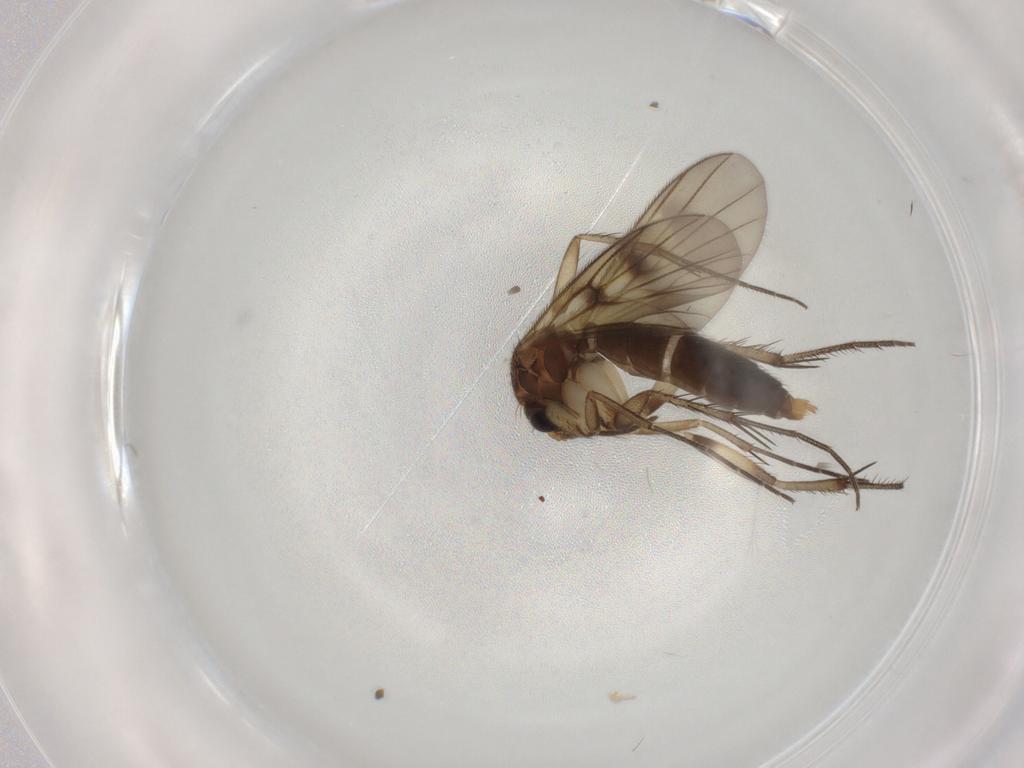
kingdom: Animalia
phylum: Arthropoda
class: Insecta
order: Diptera
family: Mycetophilidae
